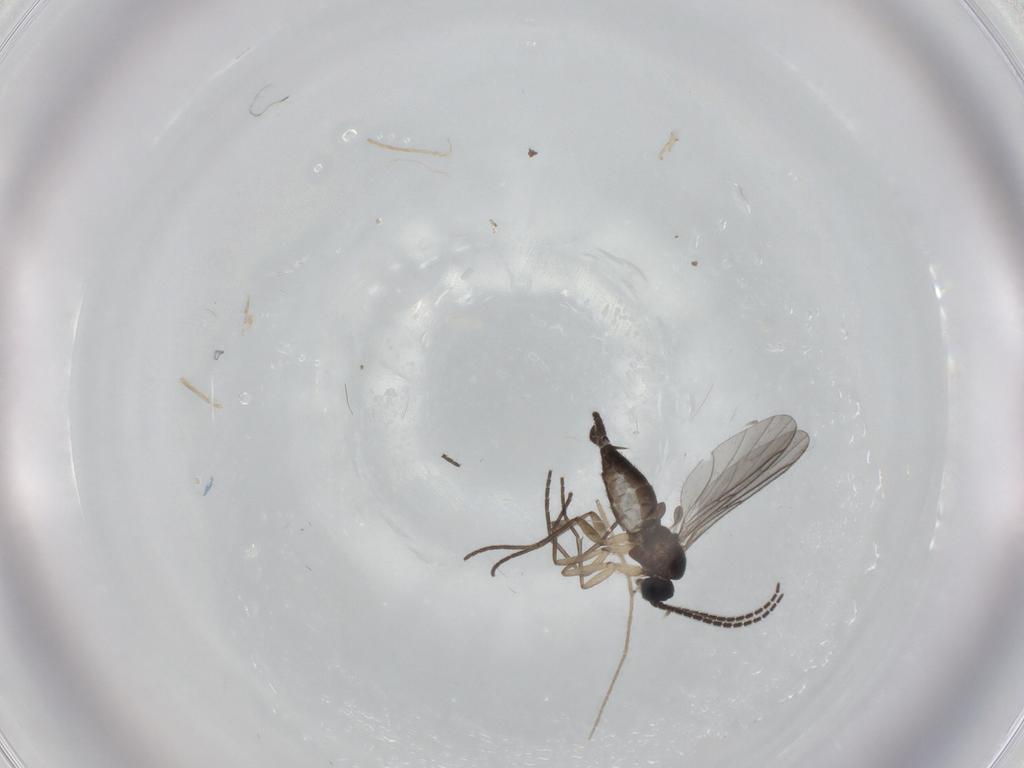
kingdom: Animalia
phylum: Arthropoda
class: Insecta
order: Diptera
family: Sciaridae
